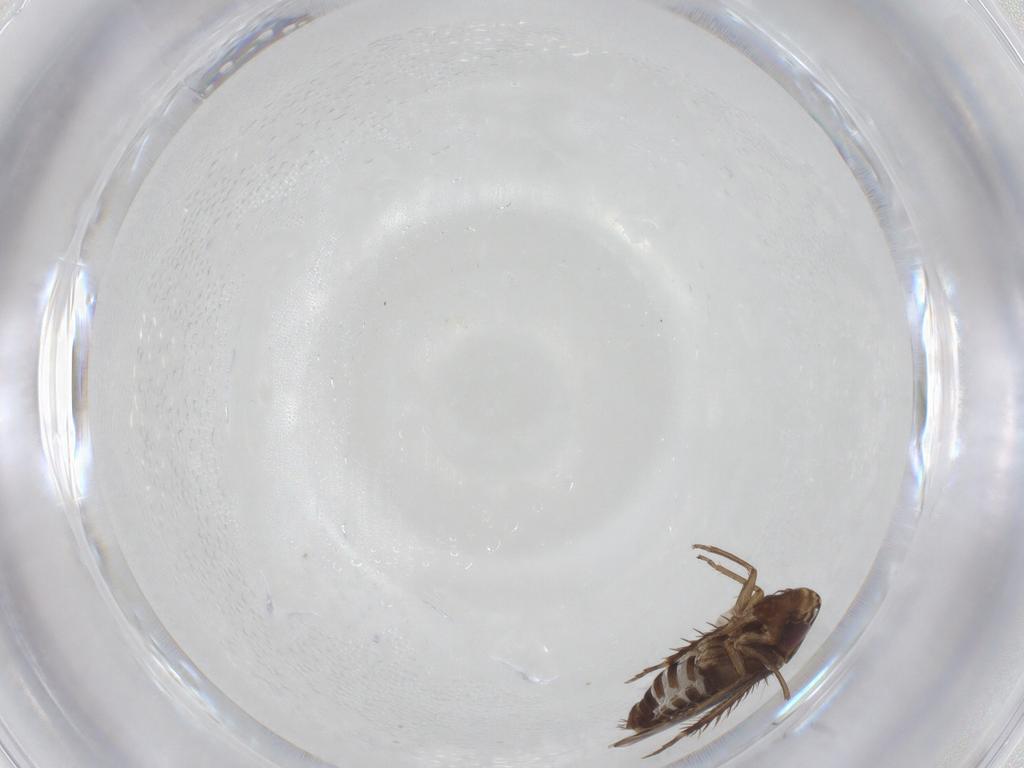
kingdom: Animalia
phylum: Arthropoda
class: Insecta
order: Hemiptera
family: Cicadellidae
